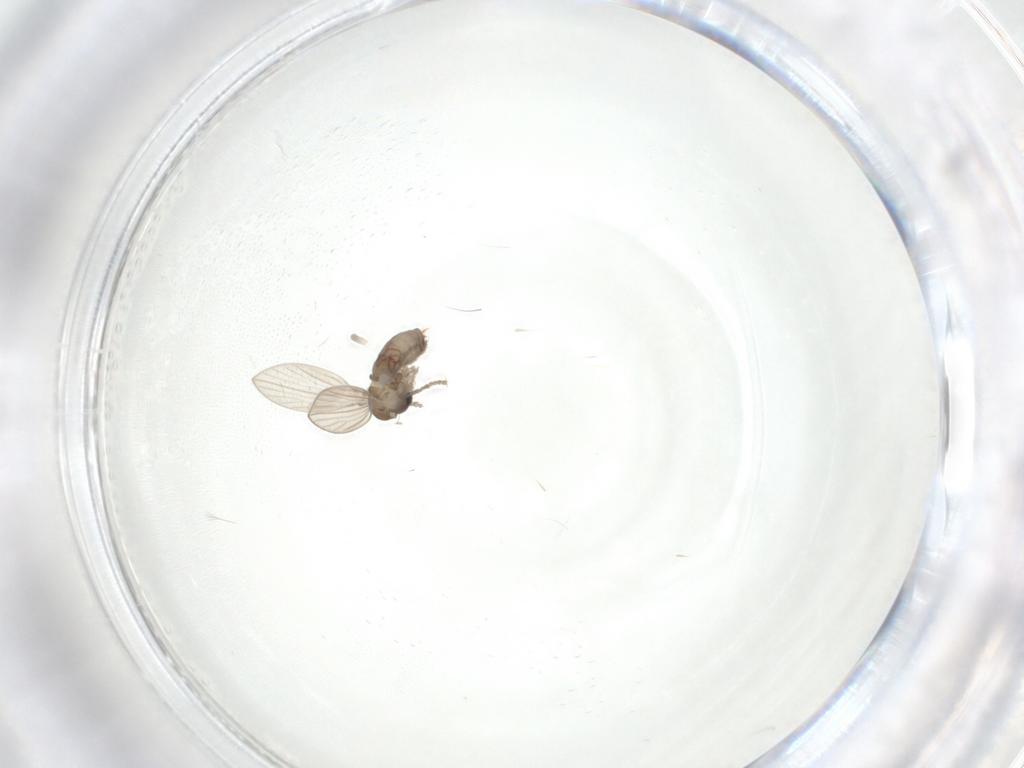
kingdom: Animalia
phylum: Arthropoda
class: Insecta
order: Diptera
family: Psychodidae
